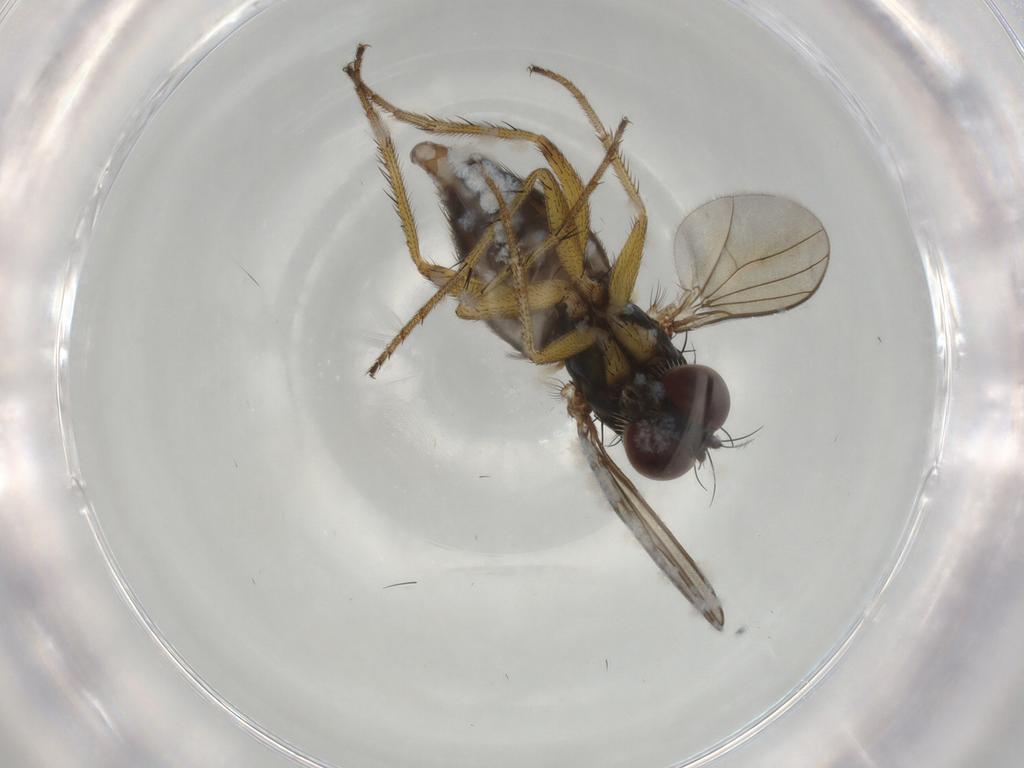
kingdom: Animalia
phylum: Arthropoda
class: Insecta
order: Diptera
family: Dolichopodidae
